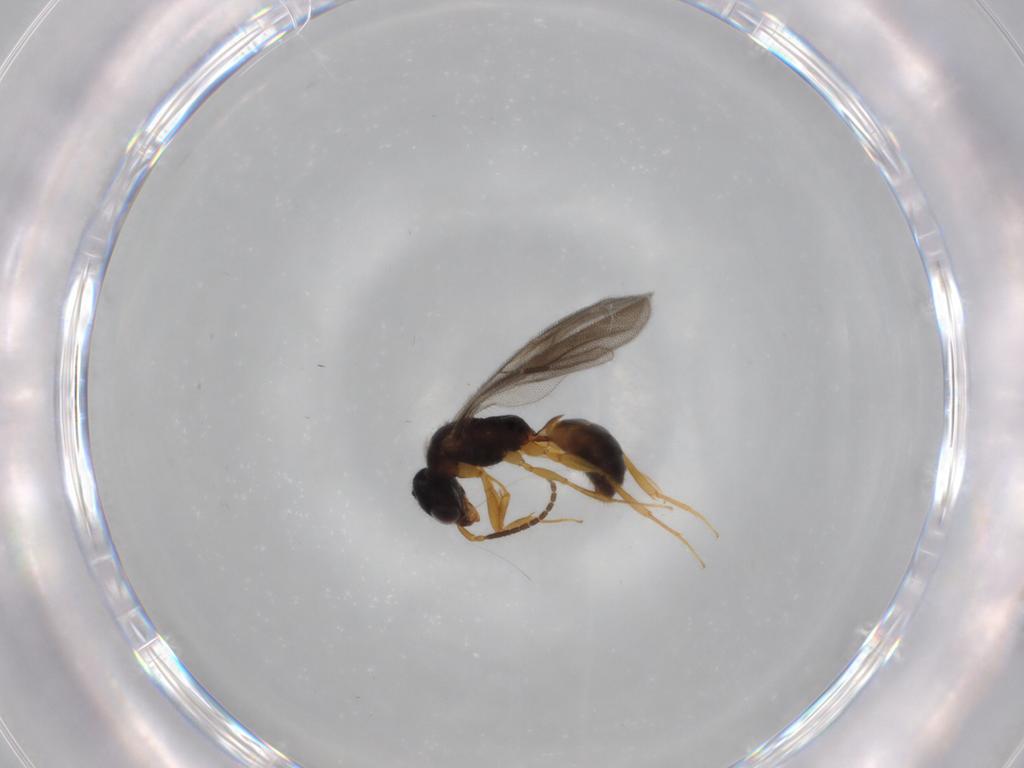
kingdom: Animalia
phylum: Arthropoda
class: Insecta
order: Hymenoptera
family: Bethylidae
